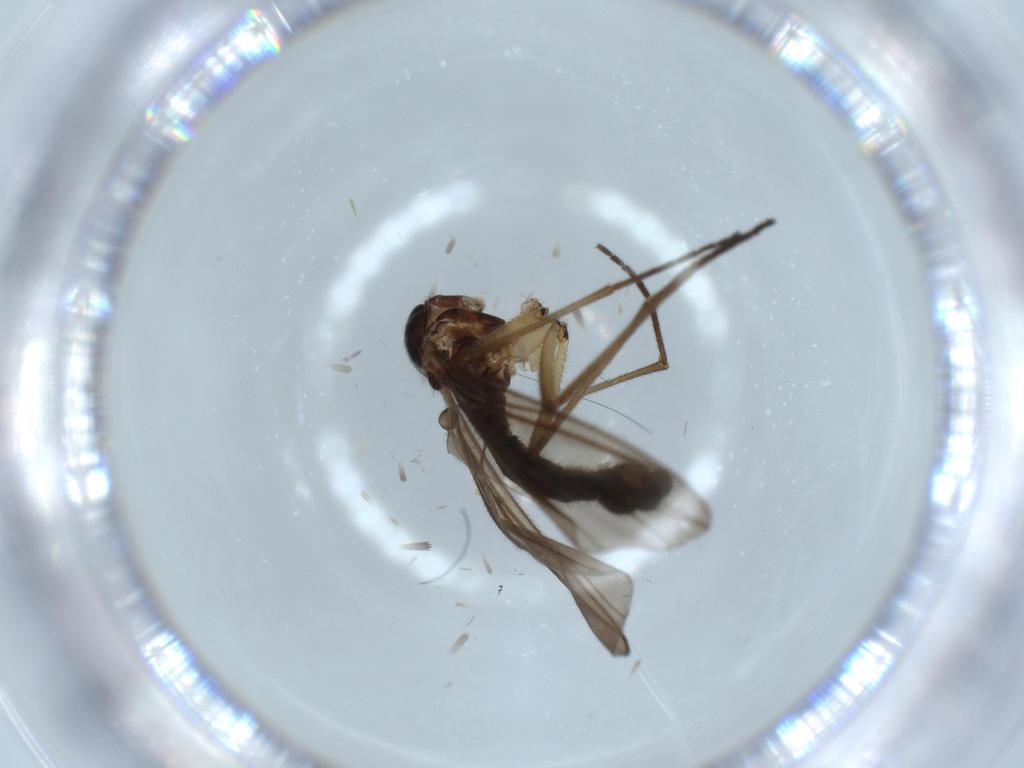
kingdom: Animalia
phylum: Arthropoda
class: Insecta
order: Diptera
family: Sciaridae
